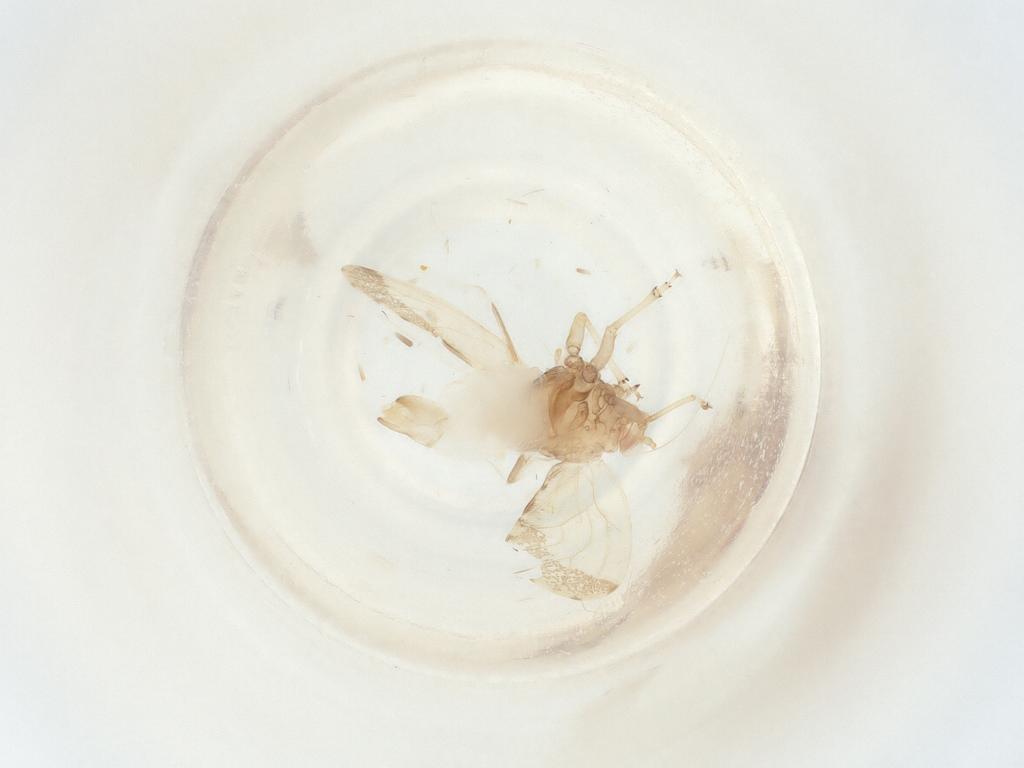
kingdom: Animalia
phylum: Arthropoda
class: Insecta
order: Hemiptera
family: Psyllidae
